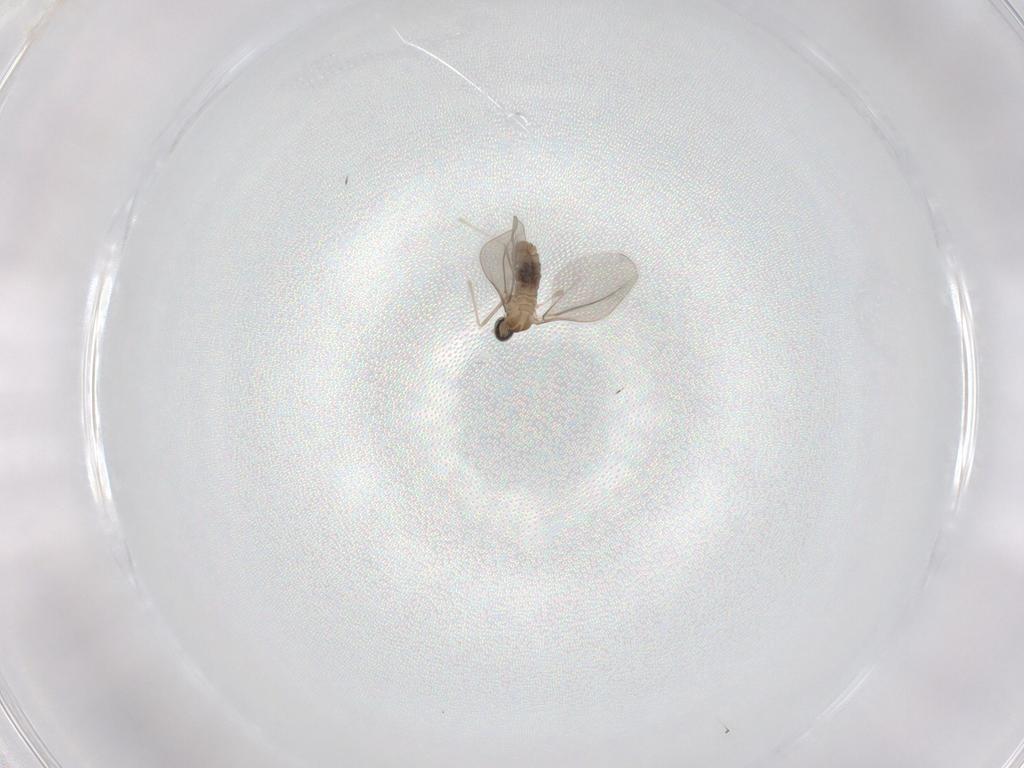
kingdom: Animalia
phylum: Arthropoda
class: Insecta
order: Diptera
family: Cecidomyiidae
